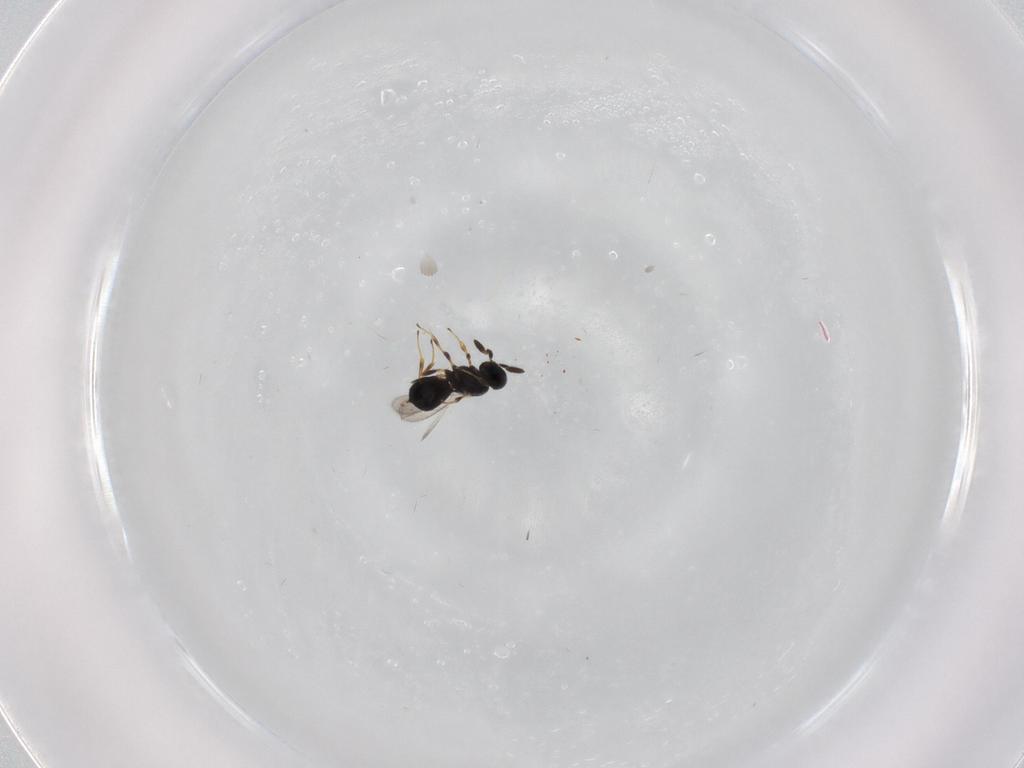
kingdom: Animalia
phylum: Arthropoda
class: Insecta
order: Hymenoptera
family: Scelionidae
